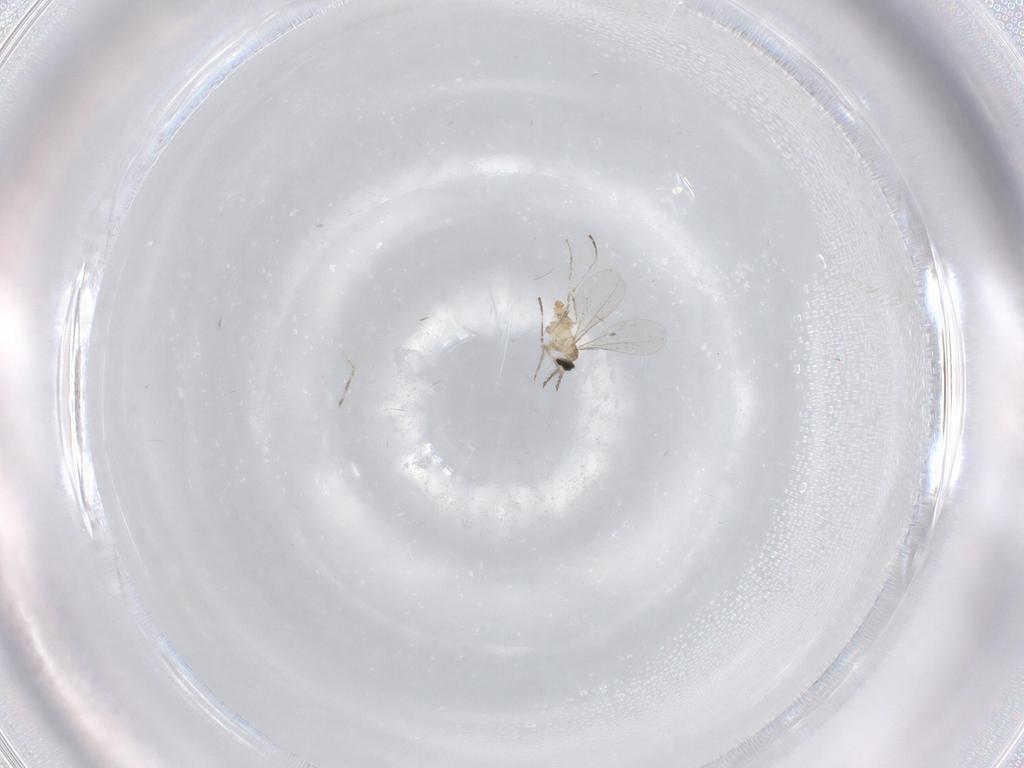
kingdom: Animalia
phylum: Arthropoda
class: Insecta
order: Diptera
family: Cecidomyiidae
